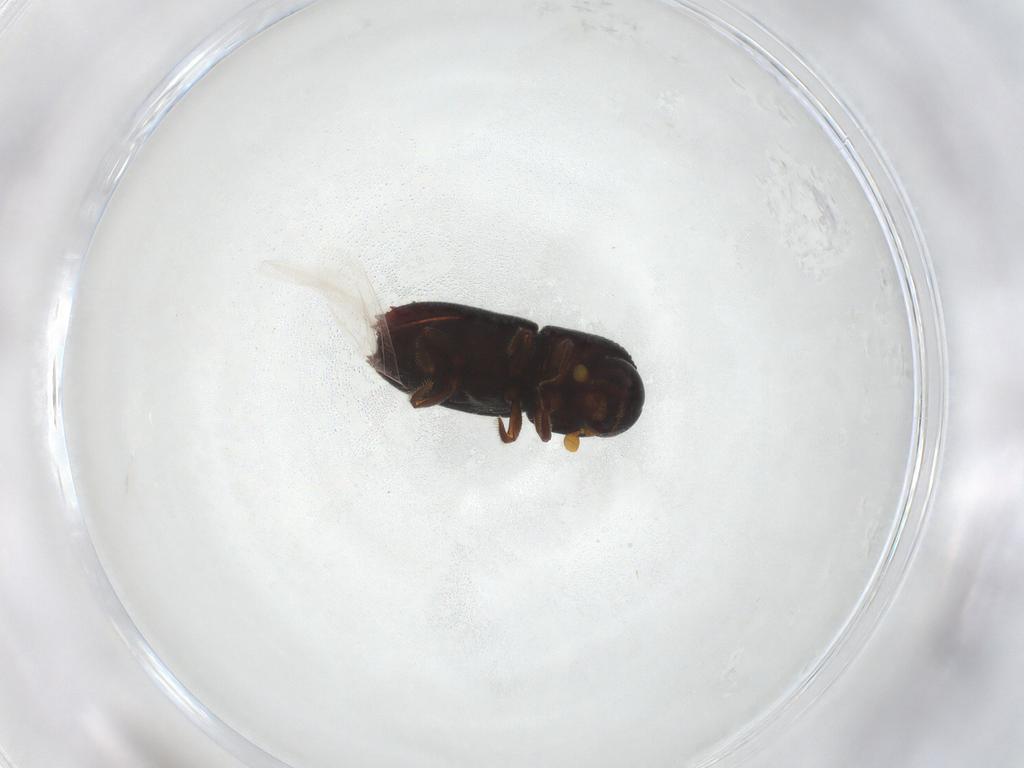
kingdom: Animalia
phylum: Arthropoda
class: Insecta
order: Coleoptera
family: Curculionidae
